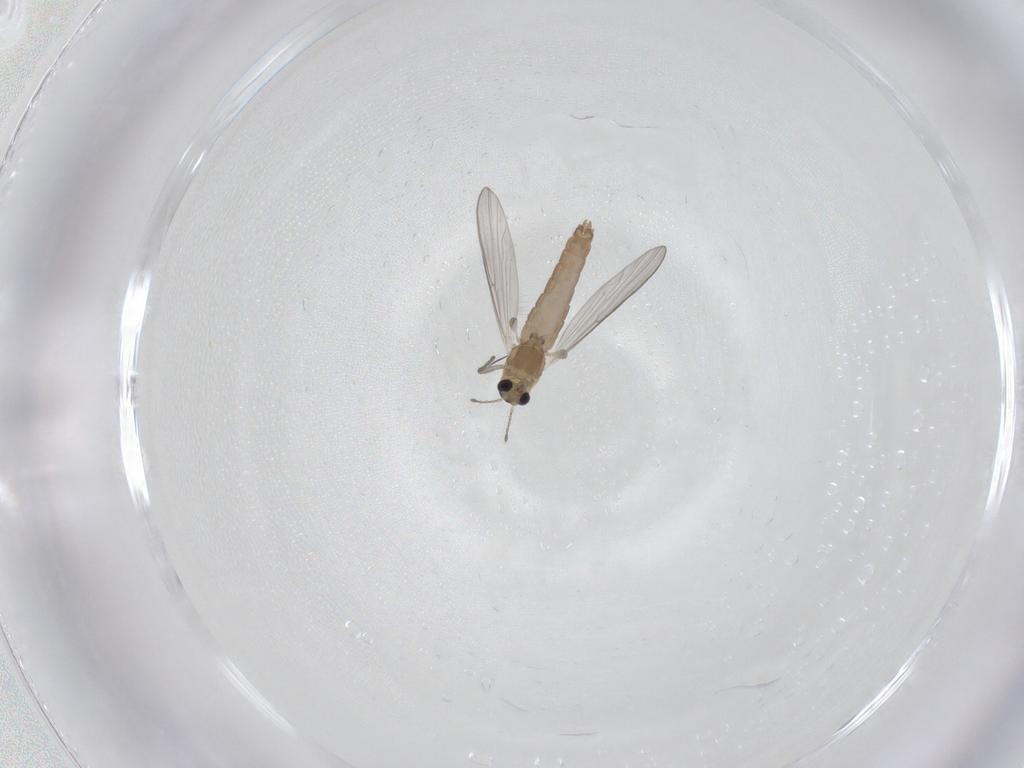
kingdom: Animalia
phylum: Arthropoda
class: Insecta
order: Diptera
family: Chironomidae
